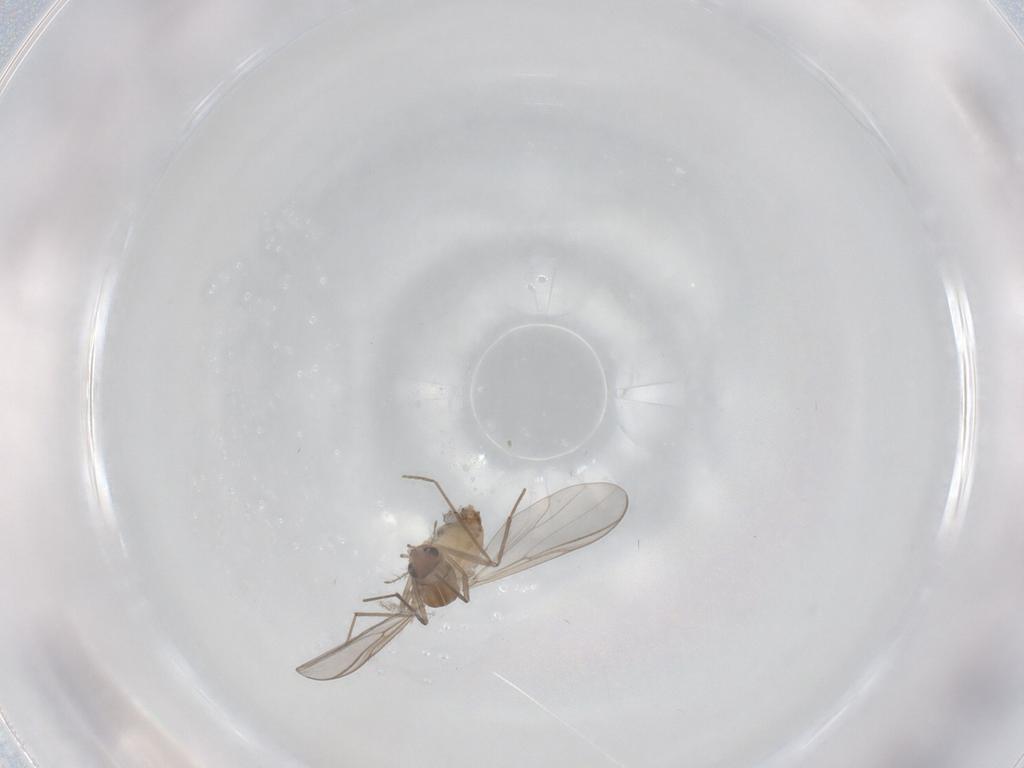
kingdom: Animalia
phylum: Arthropoda
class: Insecta
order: Diptera
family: Chironomidae
